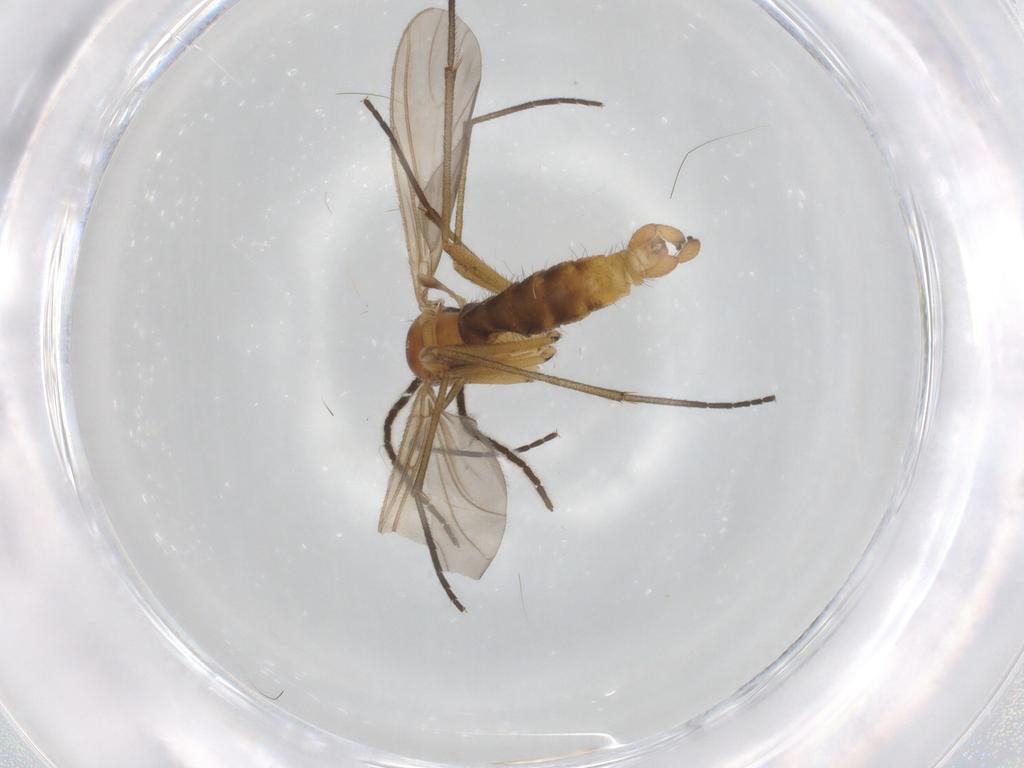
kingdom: Animalia
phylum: Arthropoda
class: Insecta
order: Diptera
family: Sciaridae
